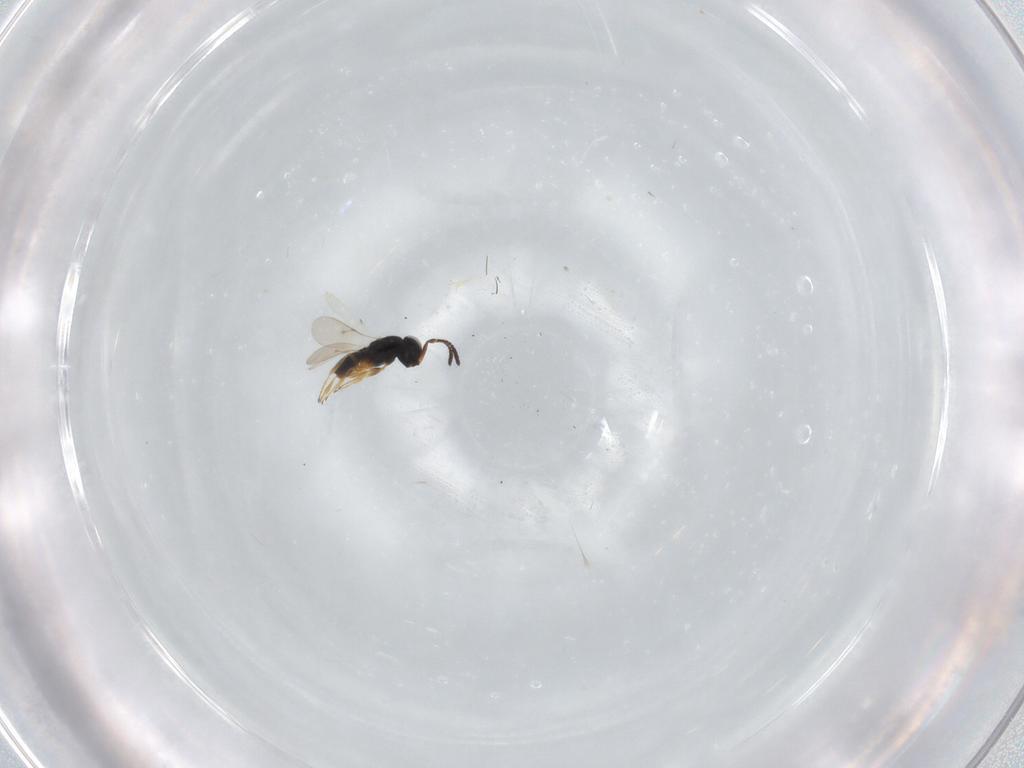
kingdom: Animalia
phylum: Arthropoda
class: Insecta
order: Hymenoptera
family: Scelionidae
